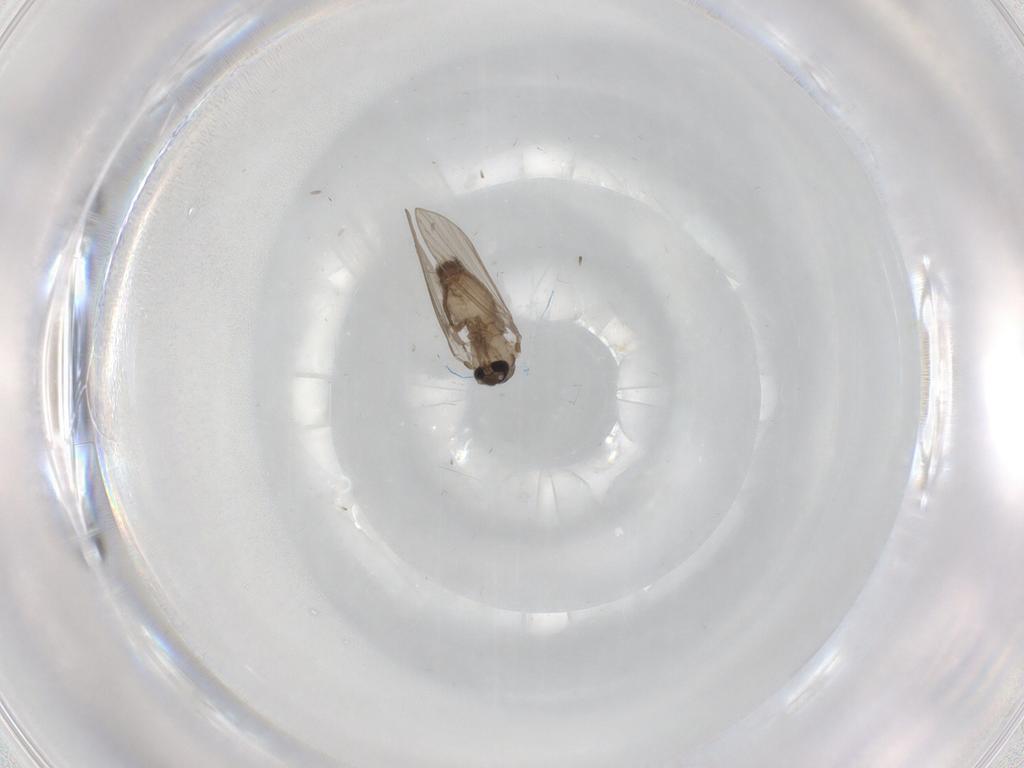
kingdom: Animalia
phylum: Arthropoda
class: Insecta
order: Diptera
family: Psychodidae
